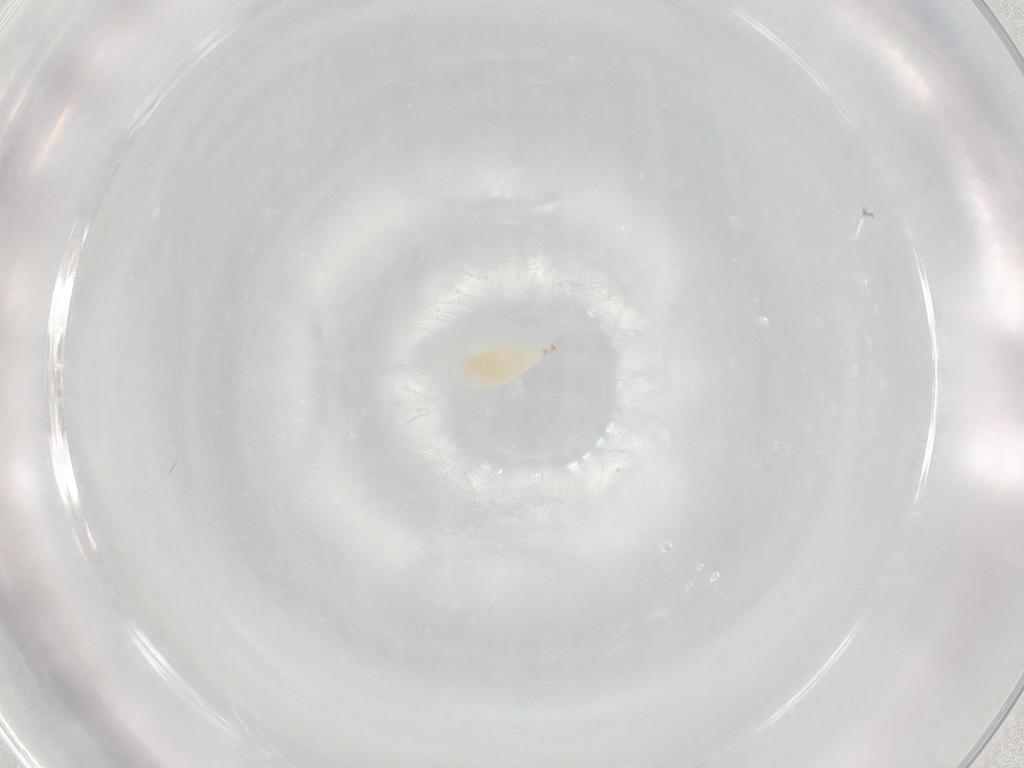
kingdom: Animalia
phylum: Arthropoda
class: Insecta
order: Hymenoptera
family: Ichneumonidae
